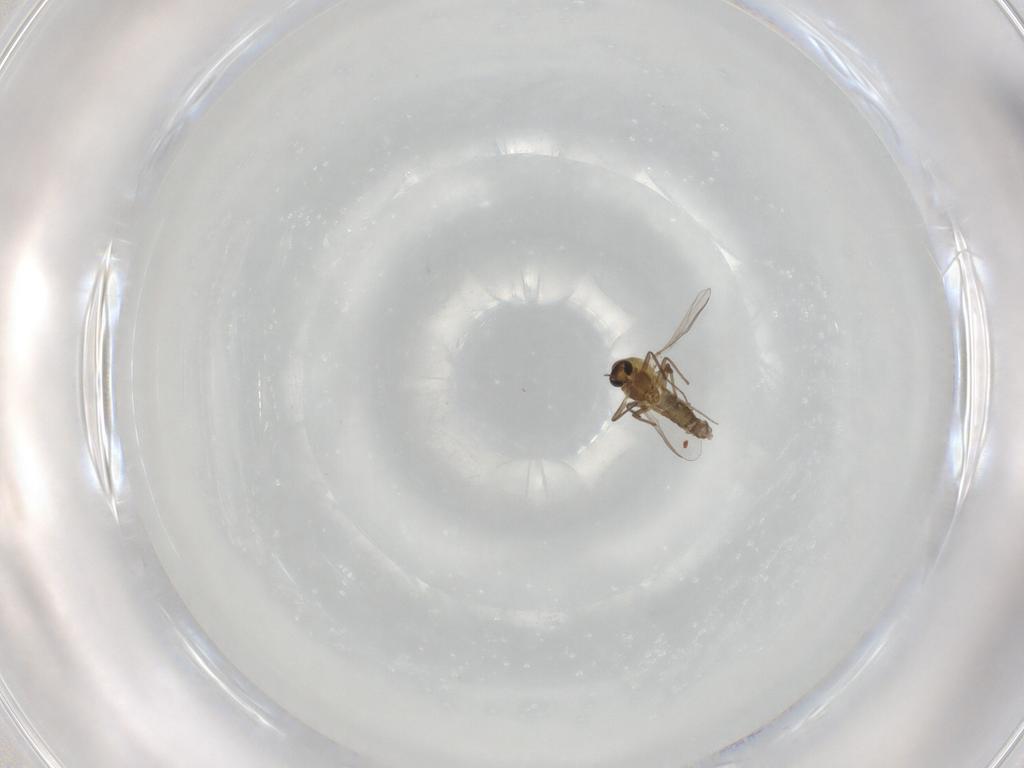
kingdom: Animalia
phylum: Arthropoda
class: Insecta
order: Diptera
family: Chironomidae
